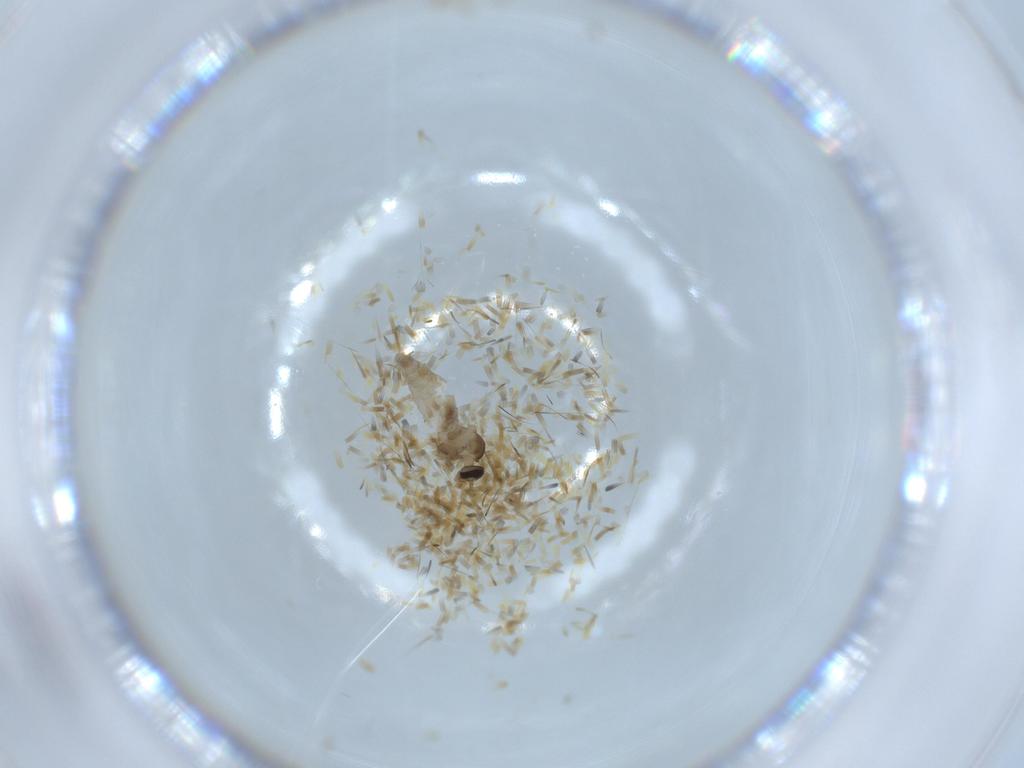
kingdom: Animalia
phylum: Arthropoda
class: Insecta
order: Diptera
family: Cecidomyiidae
